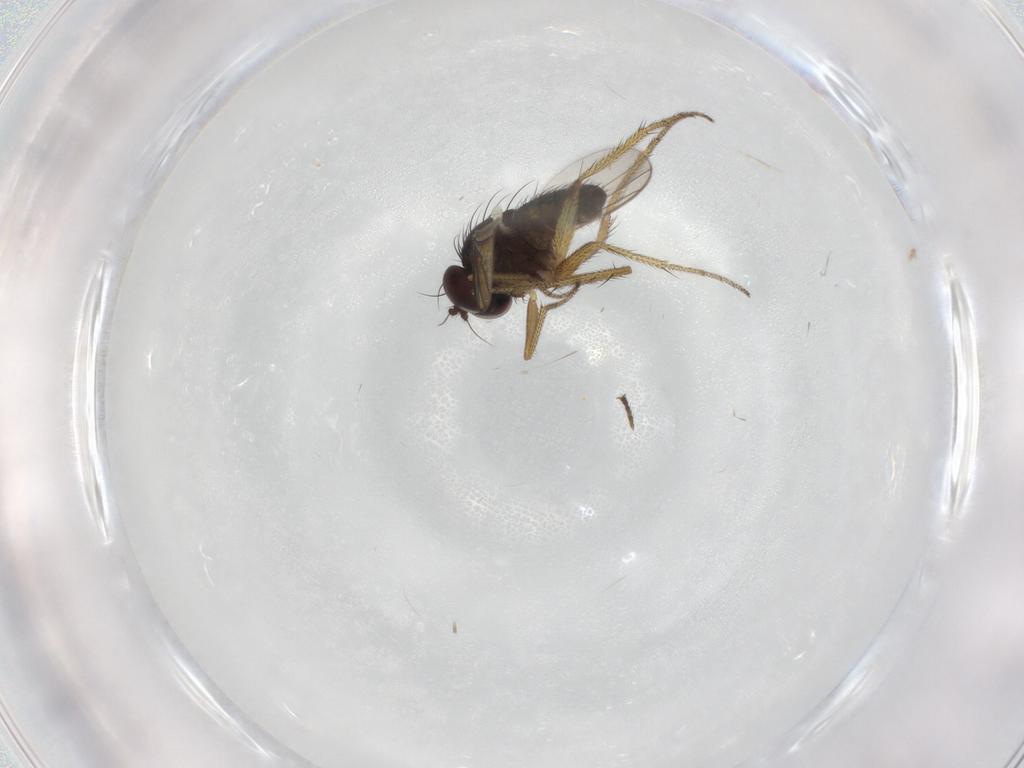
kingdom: Animalia
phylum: Arthropoda
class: Insecta
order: Diptera
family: Dolichopodidae
